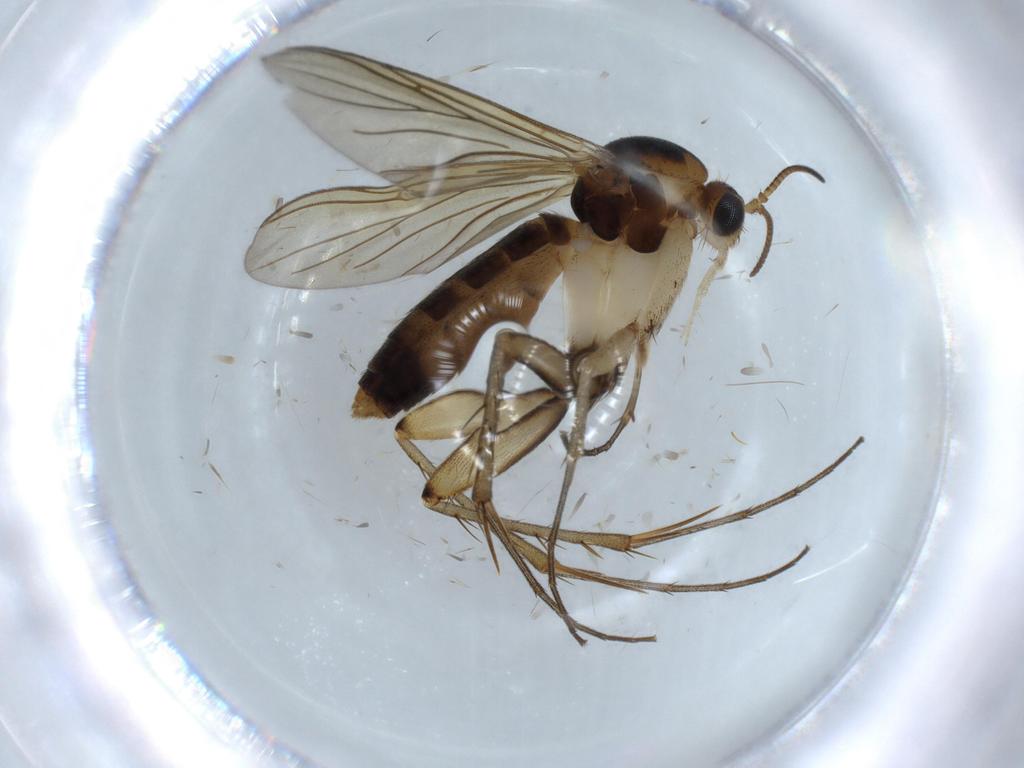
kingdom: Animalia
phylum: Arthropoda
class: Insecta
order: Diptera
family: Mycetophilidae
